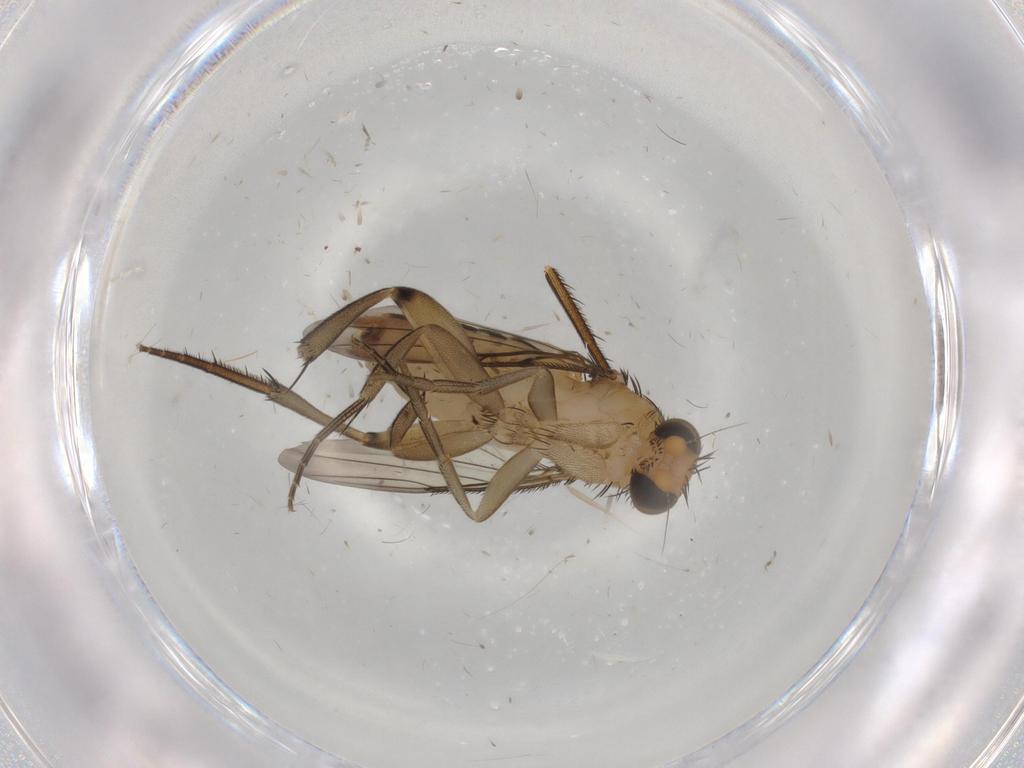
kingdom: Animalia
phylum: Arthropoda
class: Insecta
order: Diptera
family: Phoridae
